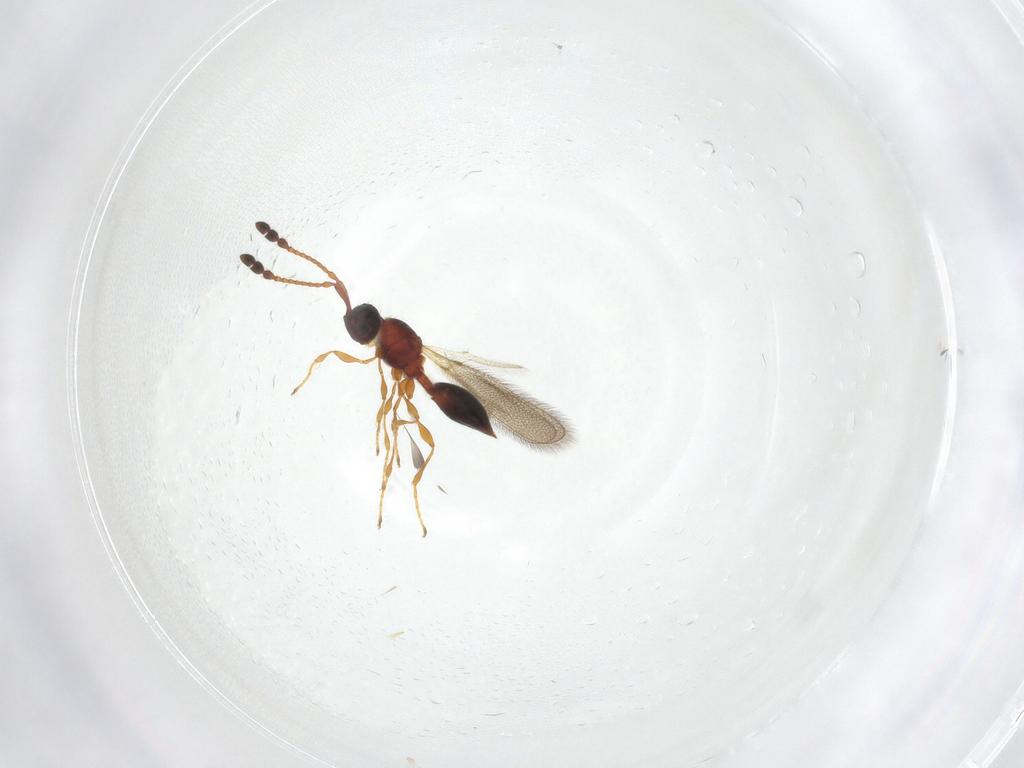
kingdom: Animalia
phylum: Arthropoda
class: Insecta
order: Hymenoptera
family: Diapriidae
